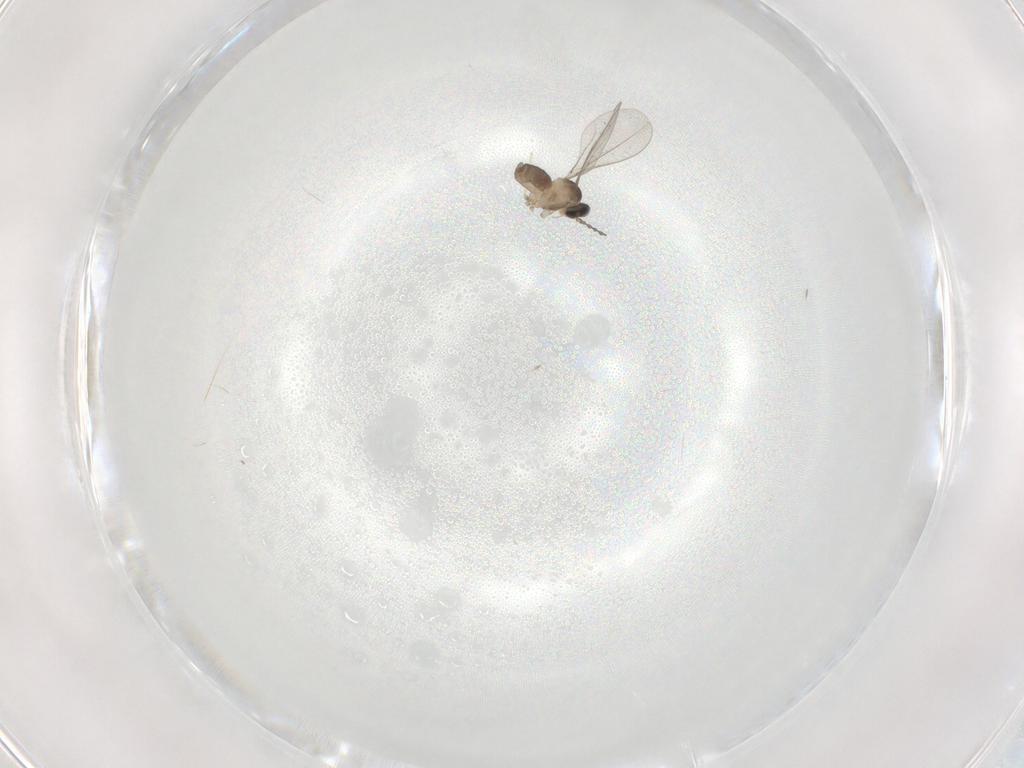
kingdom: Animalia
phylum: Arthropoda
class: Insecta
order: Diptera
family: Cecidomyiidae
